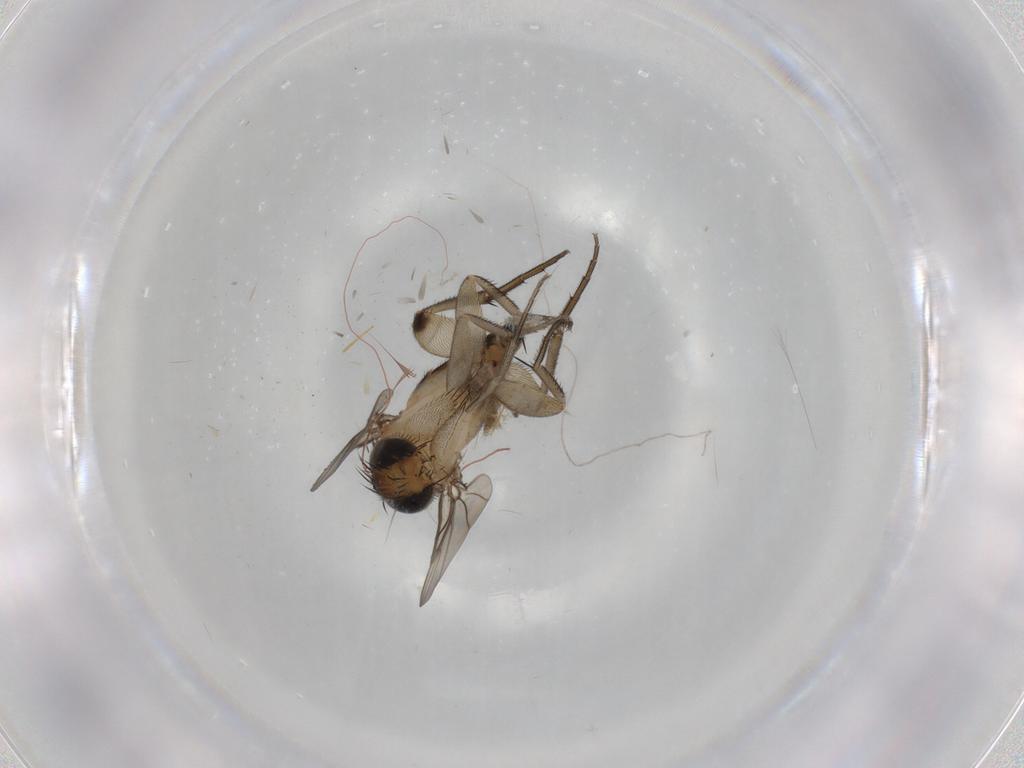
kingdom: Animalia
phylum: Arthropoda
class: Insecta
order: Diptera
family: Phoridae
